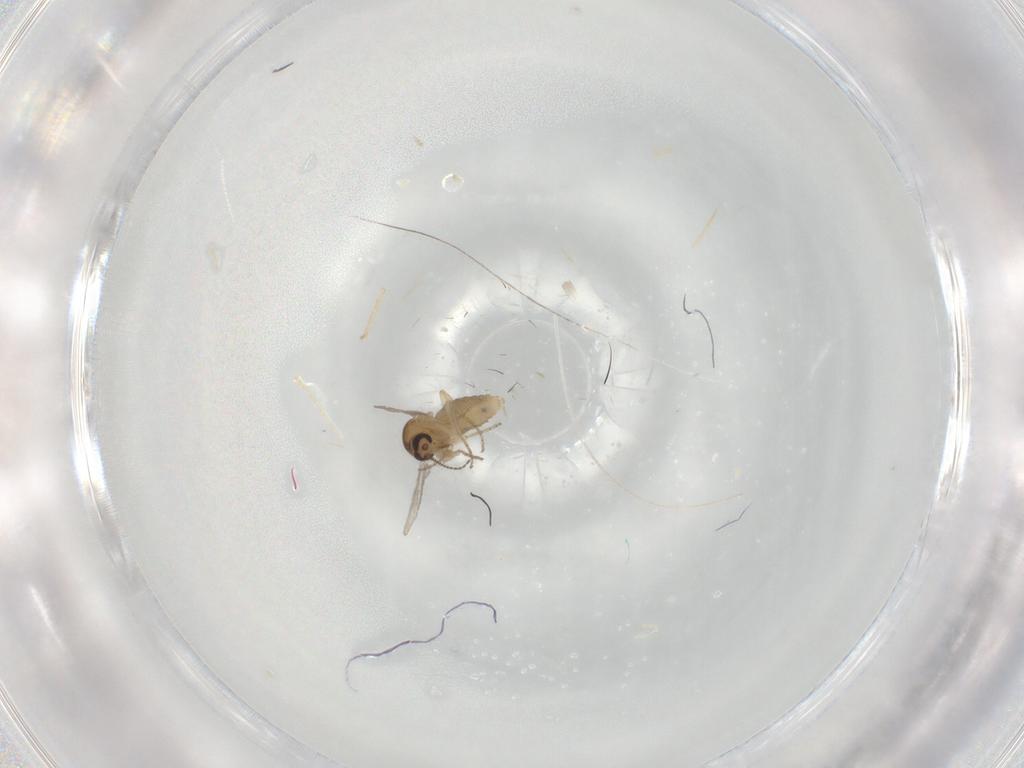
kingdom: Animalia
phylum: Arthropoda
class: Insecta
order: Diptera
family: Ceratopogonidae
